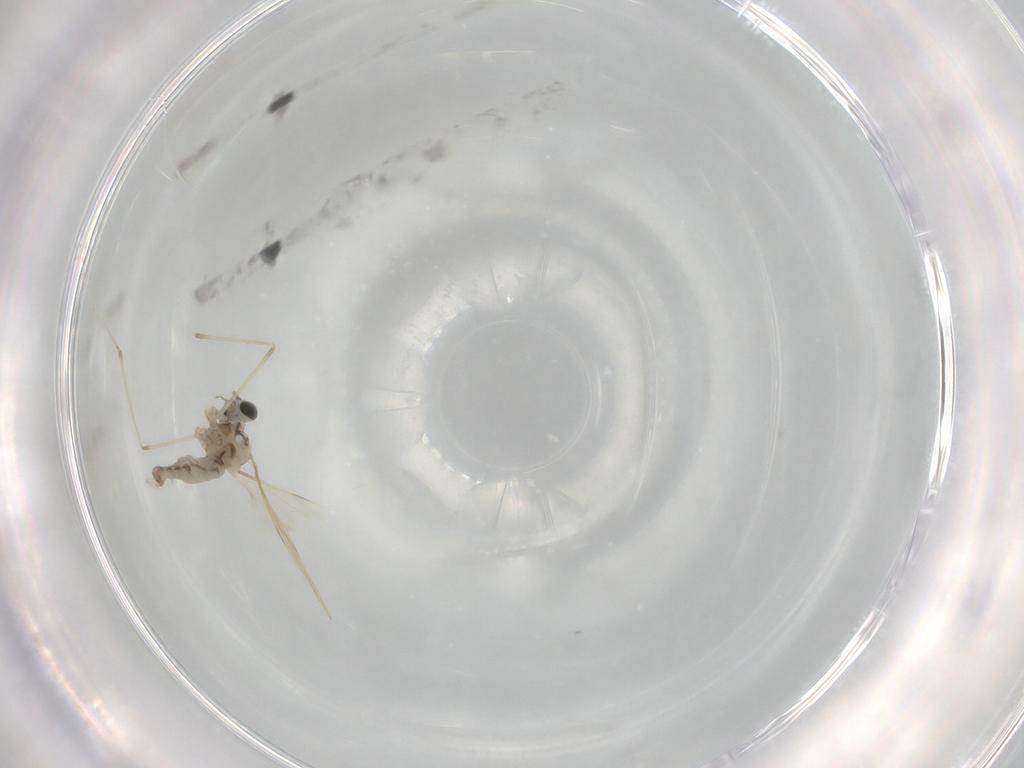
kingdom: Animalia
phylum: Arthropoda
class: Insecta
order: Diptera
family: Cecidomyiidae
